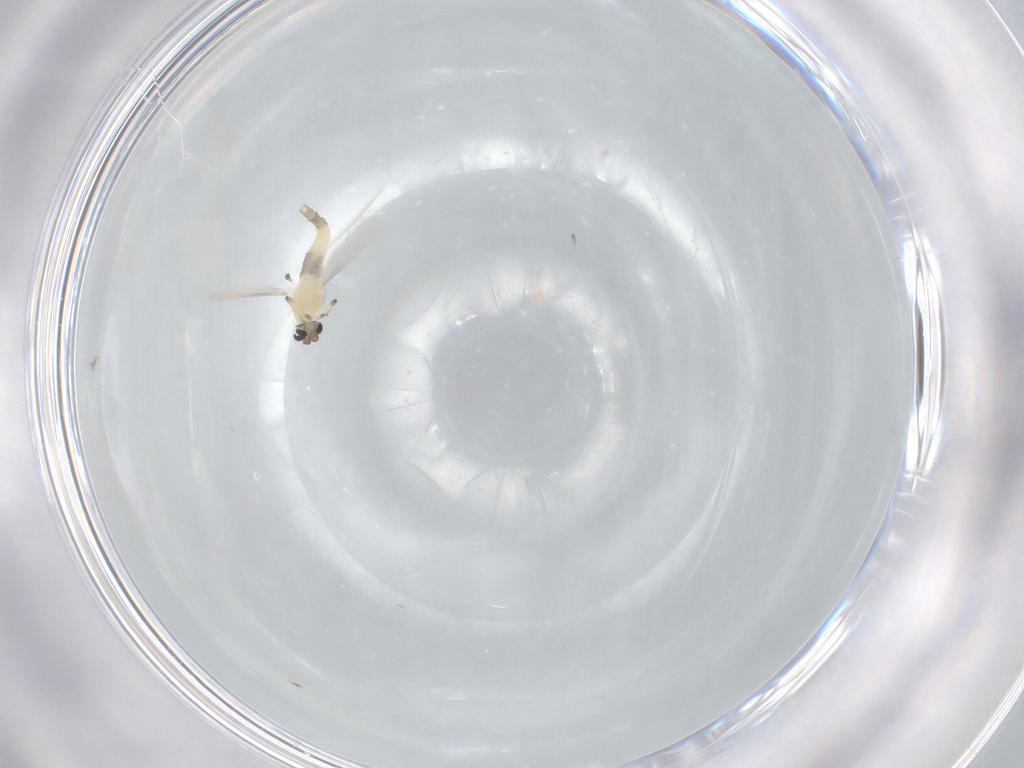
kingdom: Animalia
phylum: Arthropoda
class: Insecta
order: Diptera
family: Chironomidae
